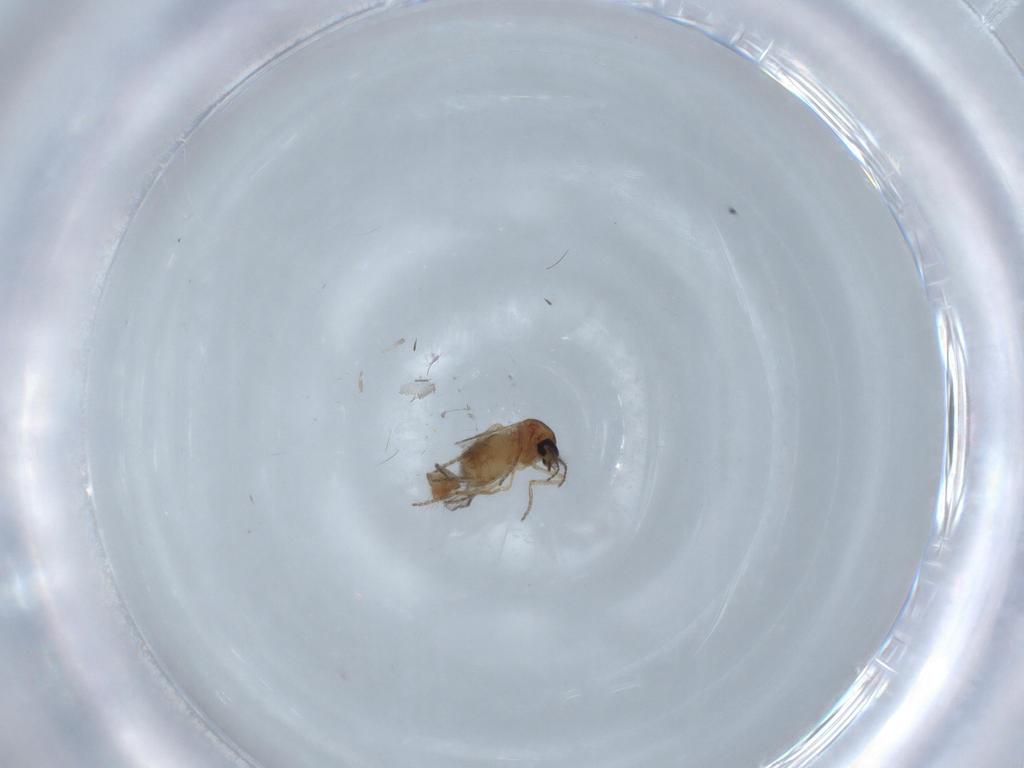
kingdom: Animalia
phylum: Arthropoda
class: Insecta
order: Diptera
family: Ceratopogonidae
